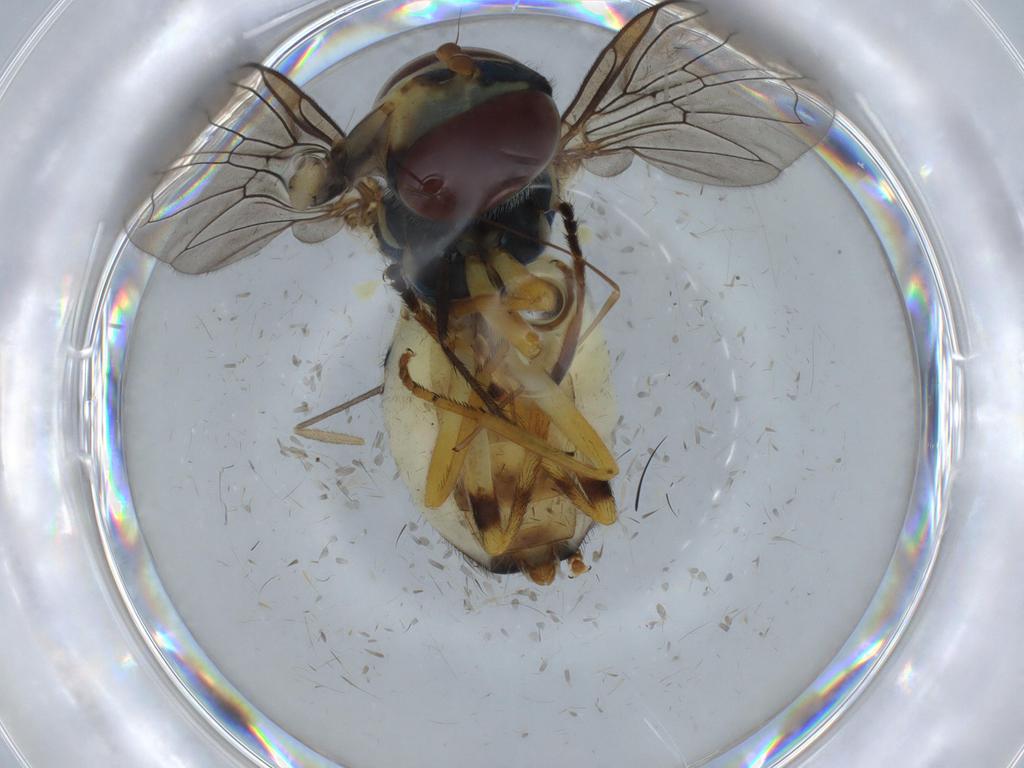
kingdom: Animalia
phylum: Arthropoda
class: Insecta
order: Diptera
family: Syrphidae
